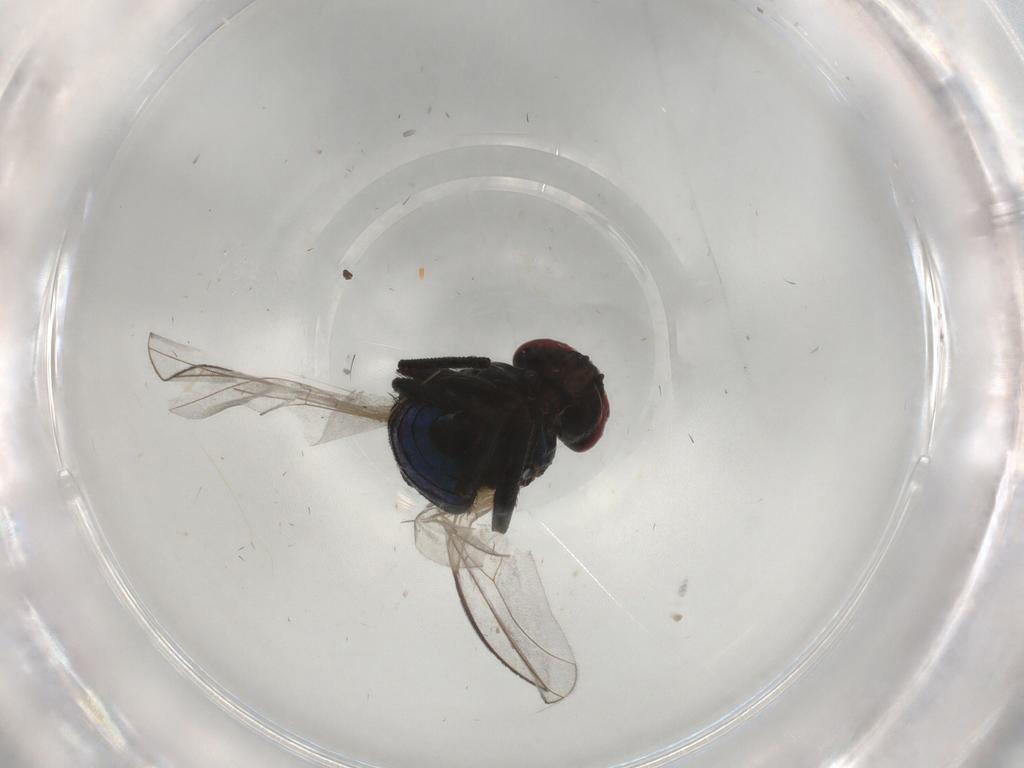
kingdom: Animalia
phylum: Arthropoda
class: Insecta
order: Diptera
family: Agromyzidae
